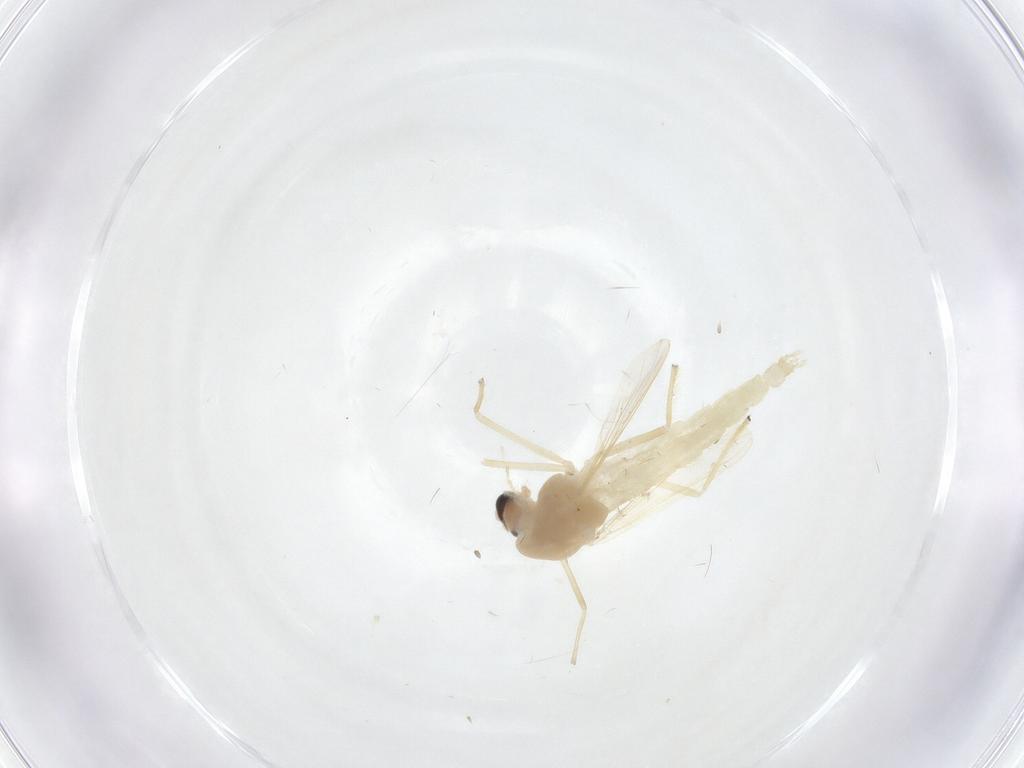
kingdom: Animalia
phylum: Arthropoda
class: Insecta
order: Diptera
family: Chironomidae
